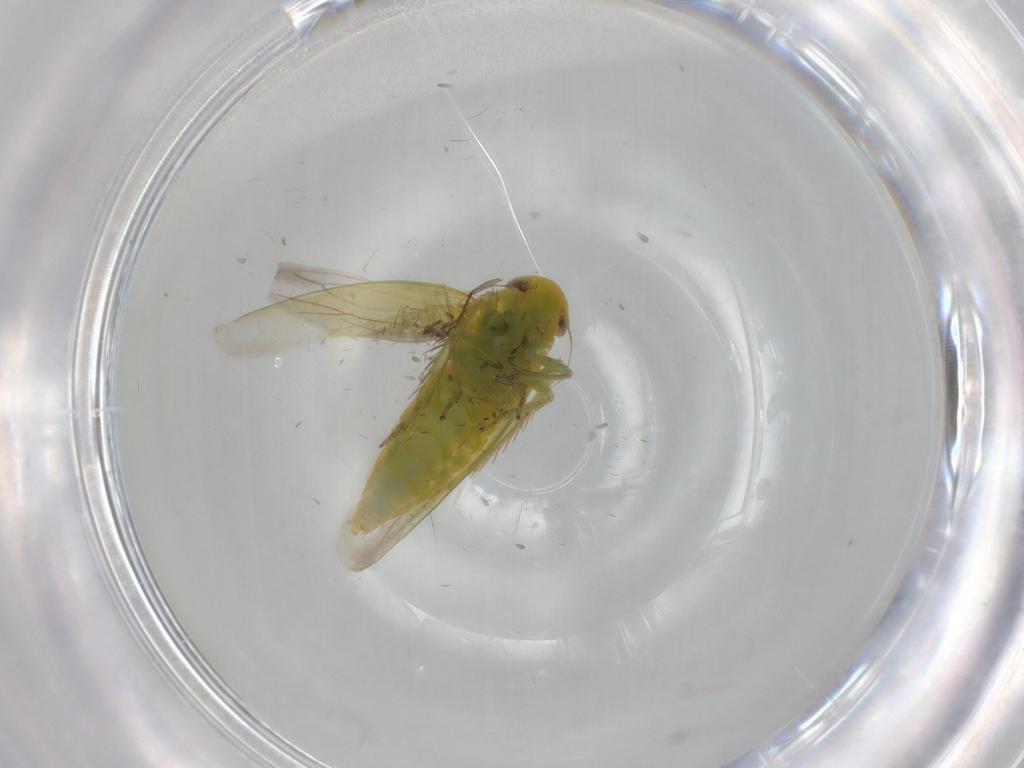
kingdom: Animalia
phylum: Arthropoda
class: Insecta
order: Hemiptera
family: Cicadellidae
